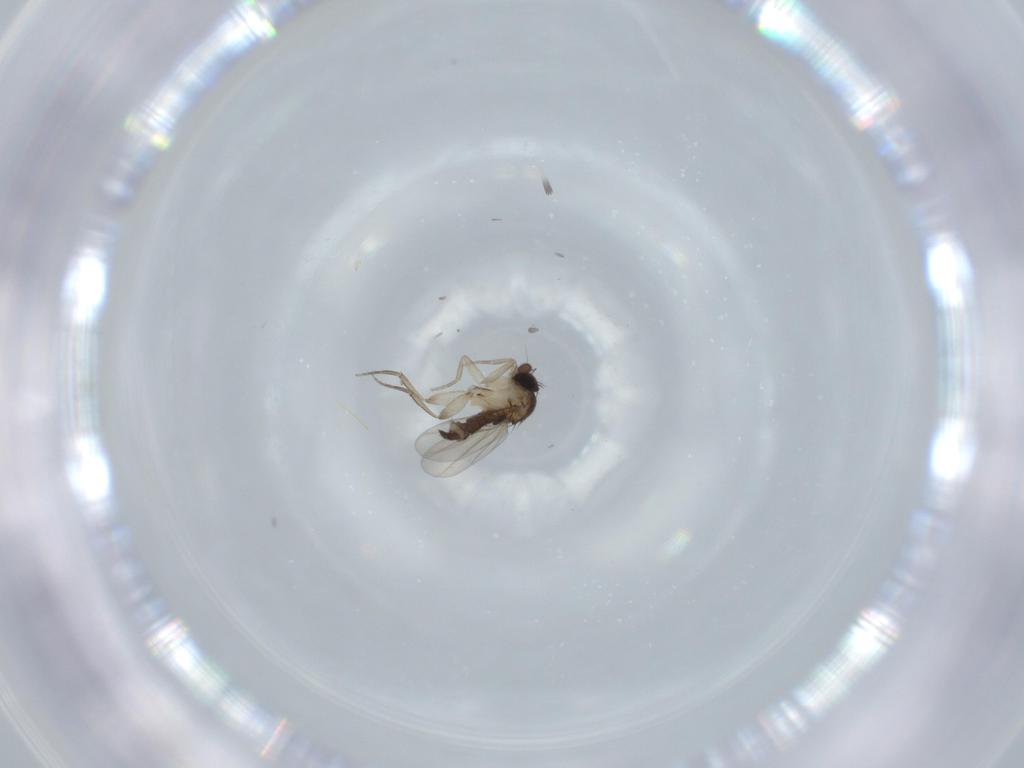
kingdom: Animalia
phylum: Arthropoda
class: Insecta
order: Diptera
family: Phoridae
